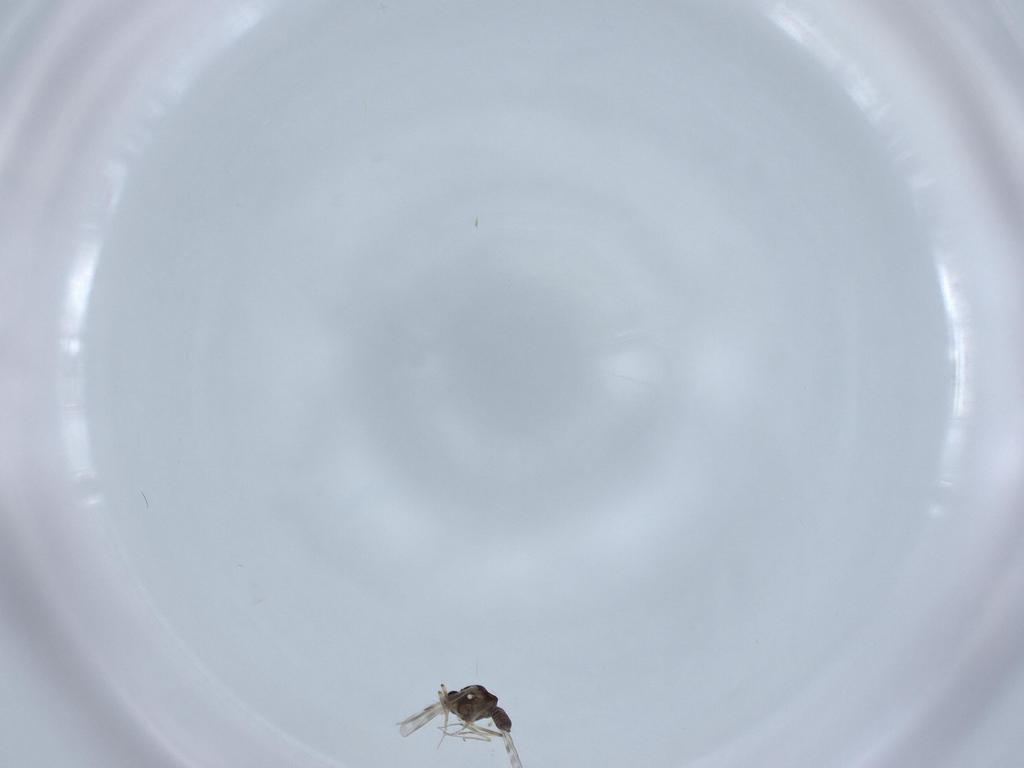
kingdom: Animalia
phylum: Arthropoda
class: Insecta
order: Diptera
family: Ceratopogonidae
